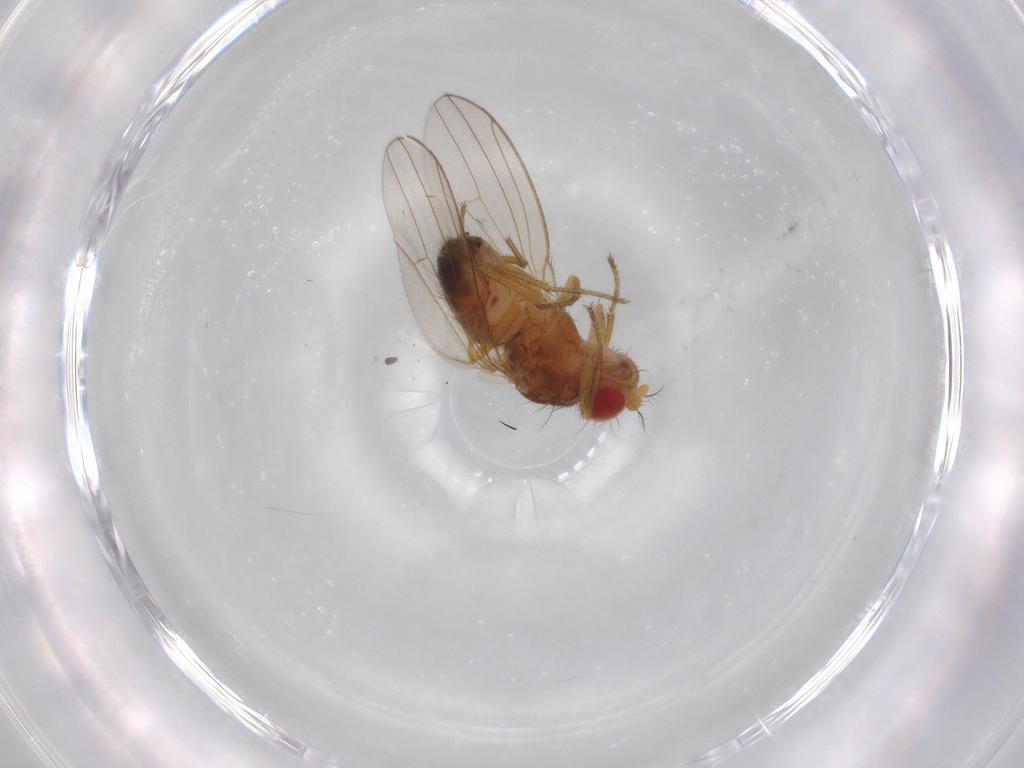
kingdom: Animalia
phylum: Arthropoda
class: Insecta
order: Diptera
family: Drosophilidae
